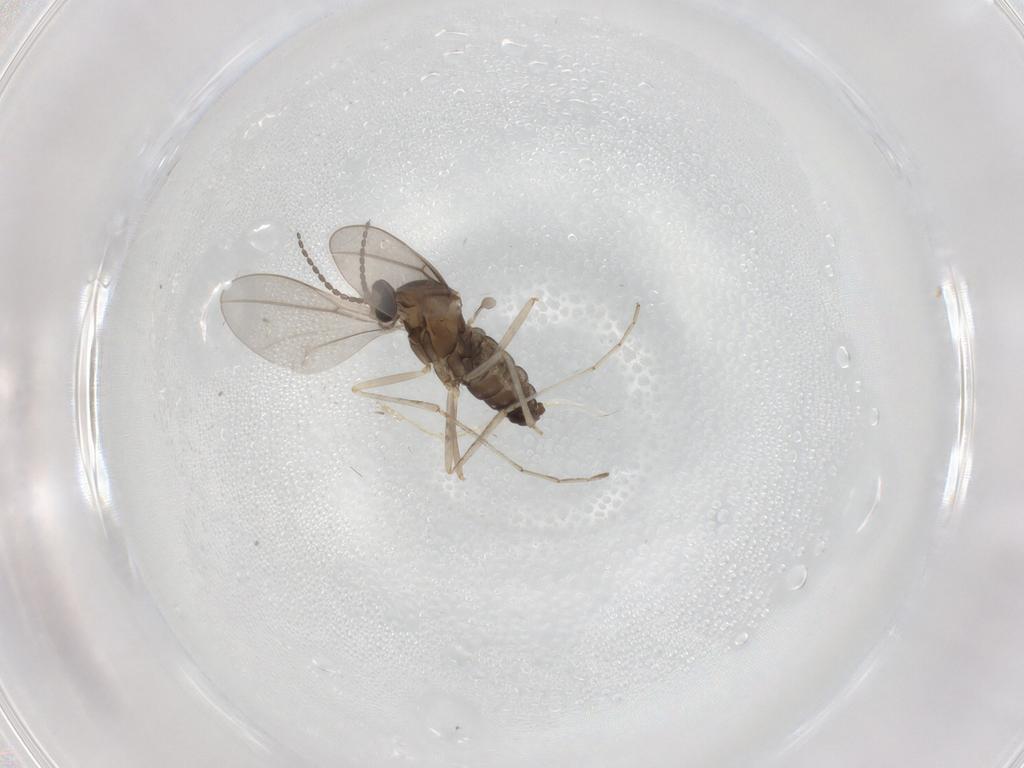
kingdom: Animalia
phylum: Arthropoda
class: Insecta
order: Diptera
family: Cecidomyiidae
